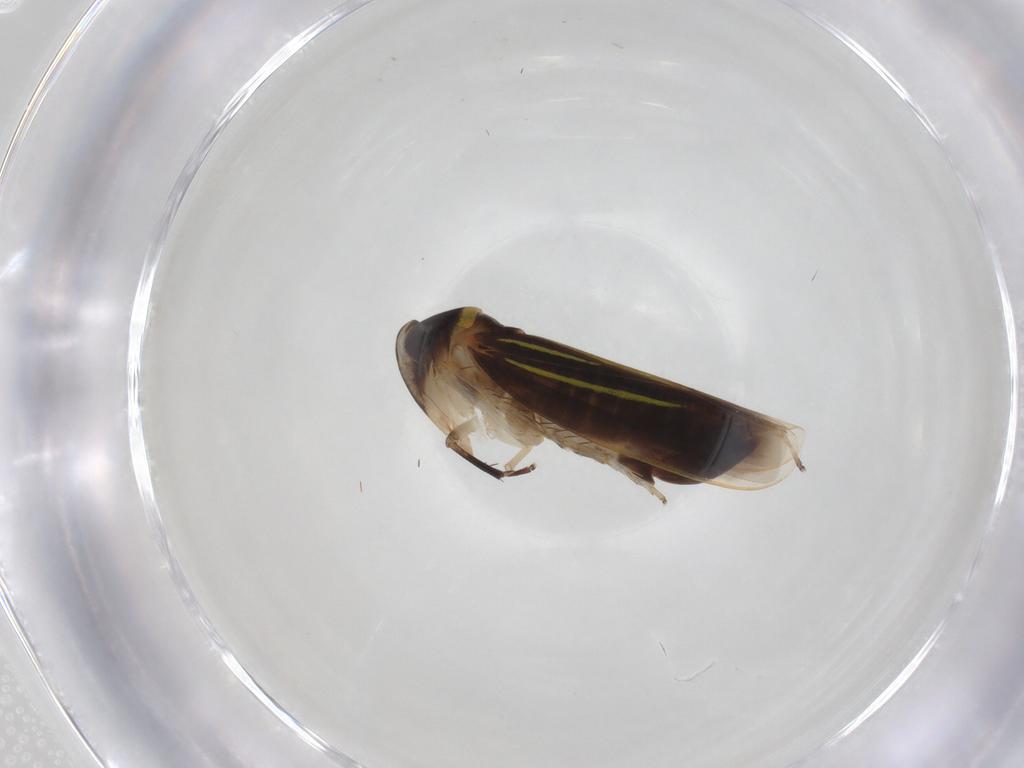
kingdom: Animalia
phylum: Arthropoda
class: Insecta
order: Hemiptera
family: Cicadellidae
